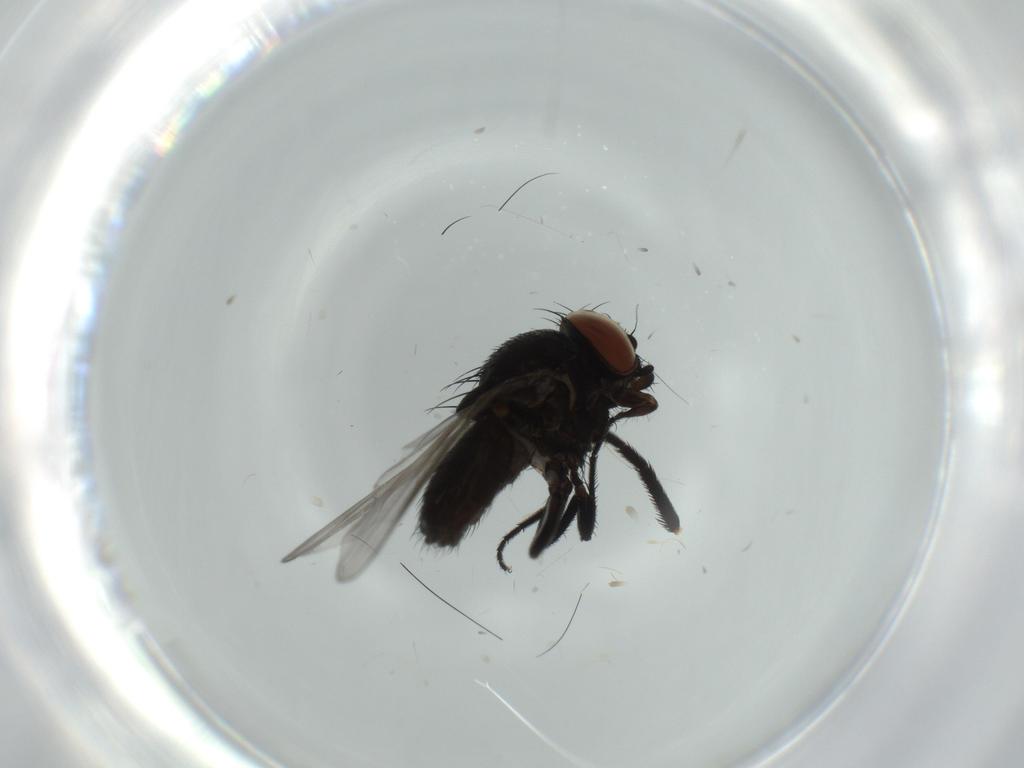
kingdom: Animalia
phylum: Arthropoda
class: Insecta
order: Diptera
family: Milichiidae
